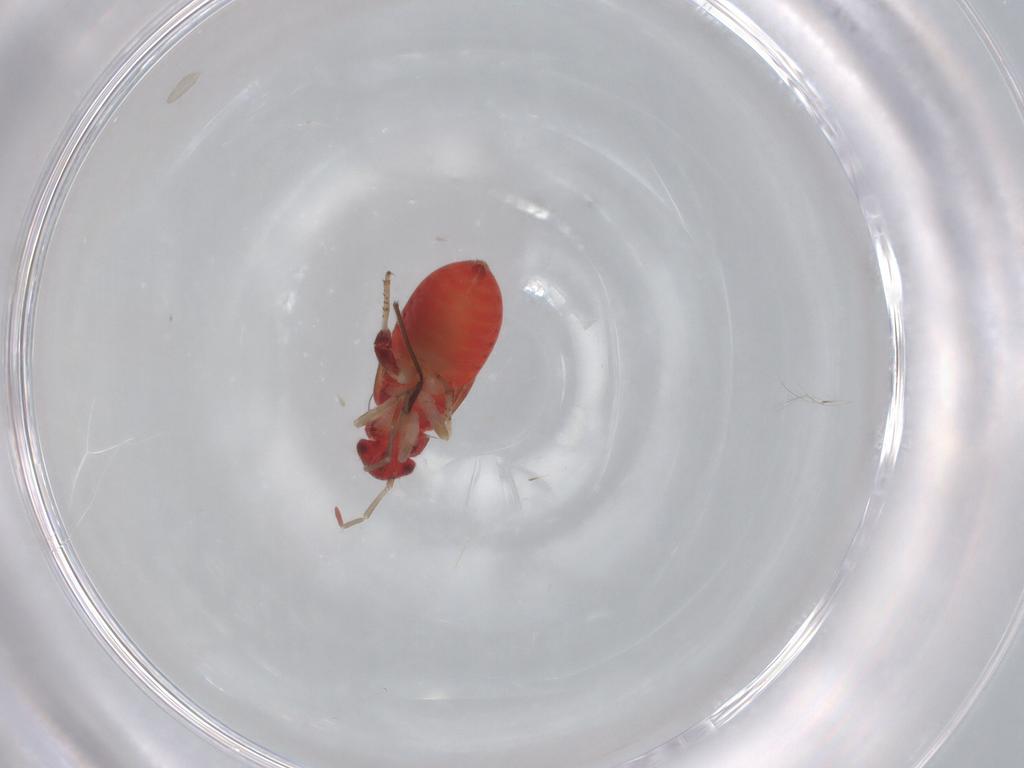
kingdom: Animalia
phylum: Arthropoda
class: Insecta
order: Hemiptera
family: Miridae
